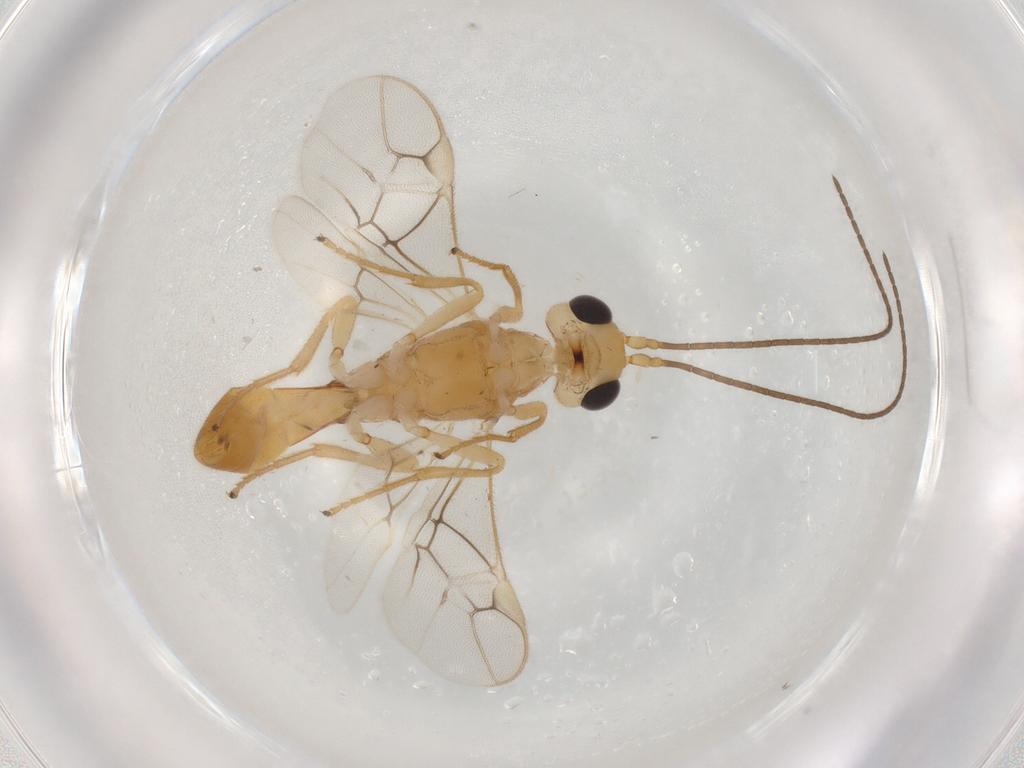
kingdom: Animalia
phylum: Arthropoda
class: Insecta
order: Hymenoptera
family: Braconidae
